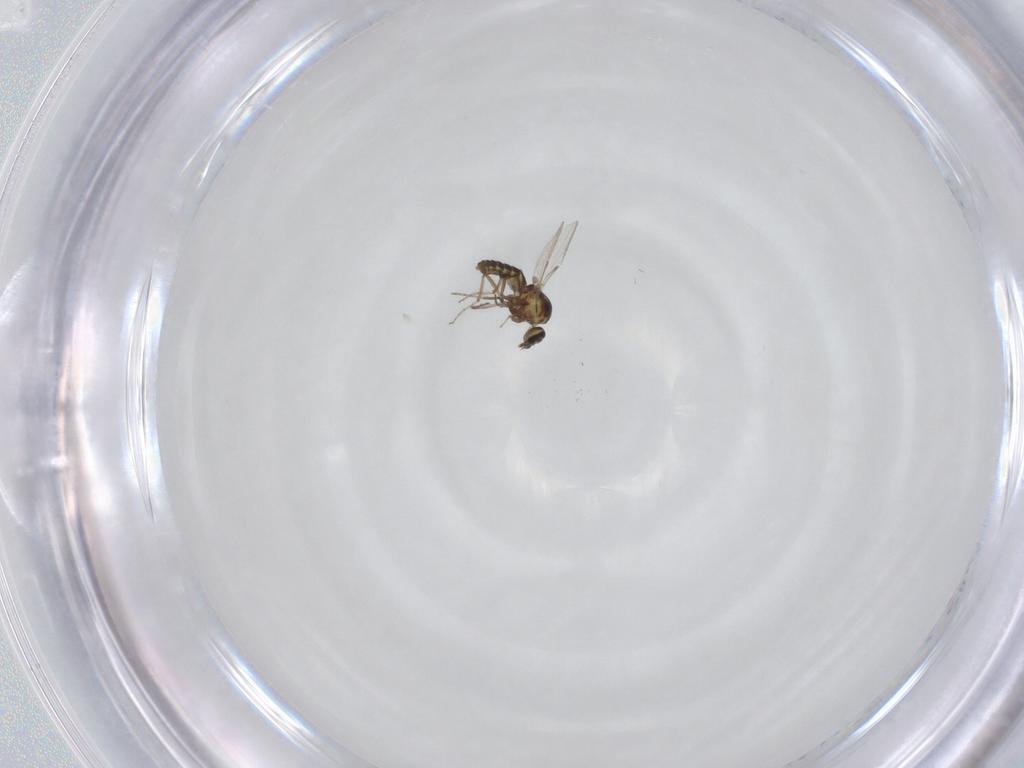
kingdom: Animalia
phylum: Arthropoda
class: Insecta
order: Diptera
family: Ceratopogonidae
